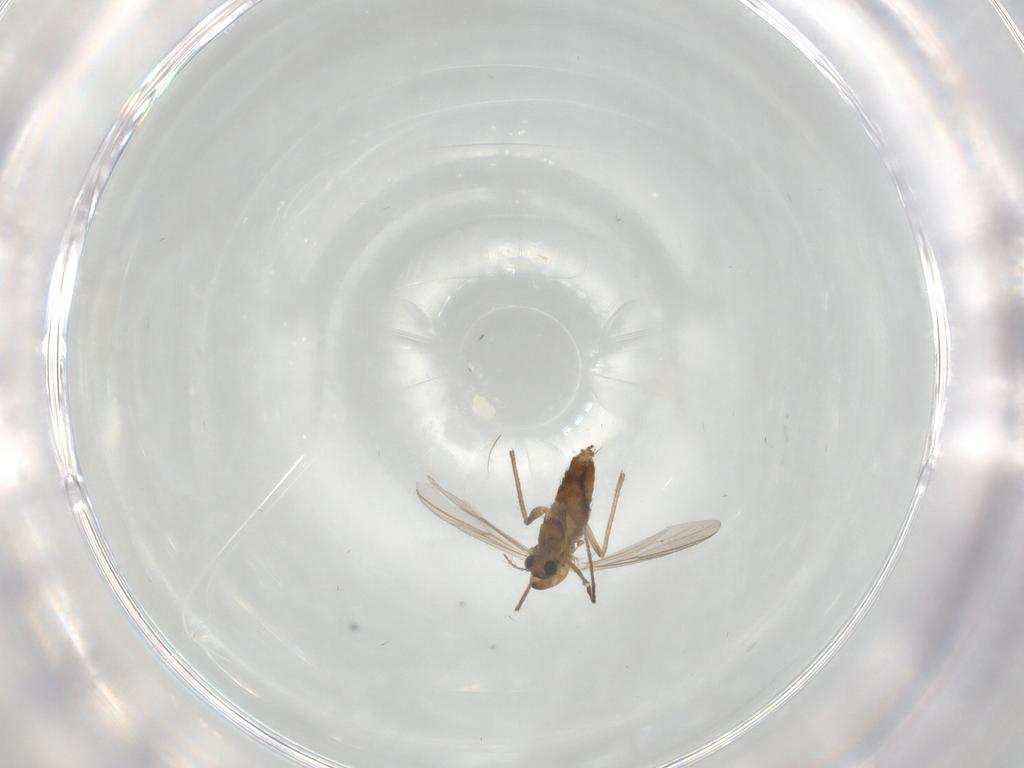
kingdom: Animalia
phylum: Arthropoda
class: Insecta
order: Diptera
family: Chironomidae
